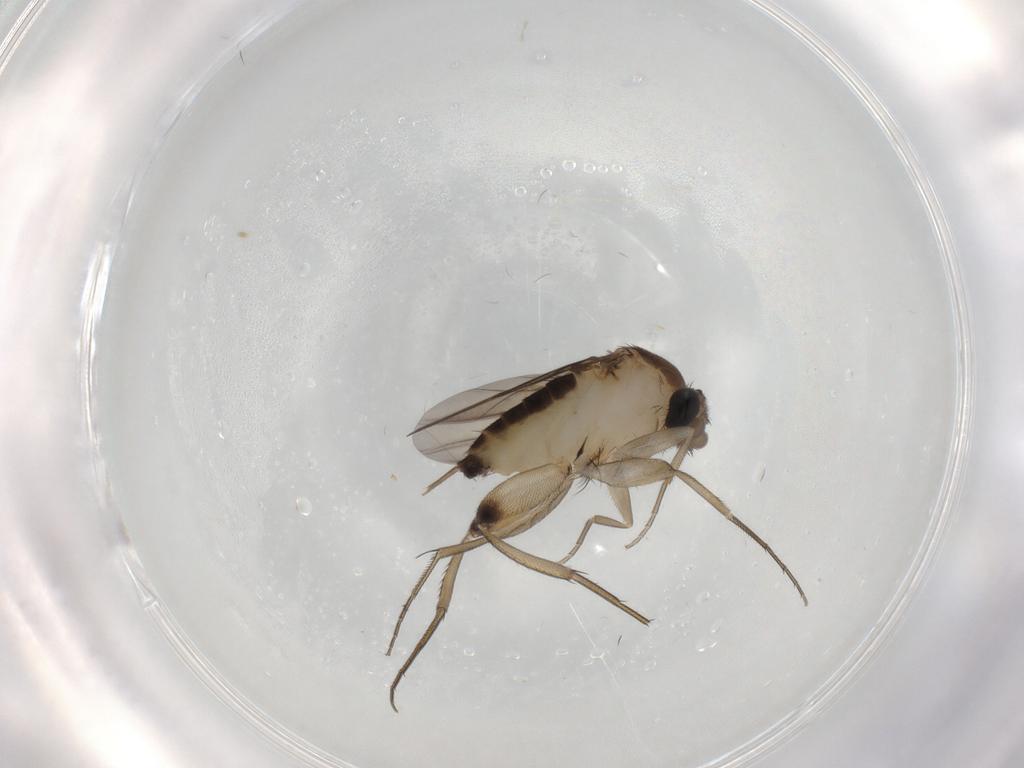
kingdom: Animalia
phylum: Arthropoda
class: Insecta
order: Diptera
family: Phoridae
